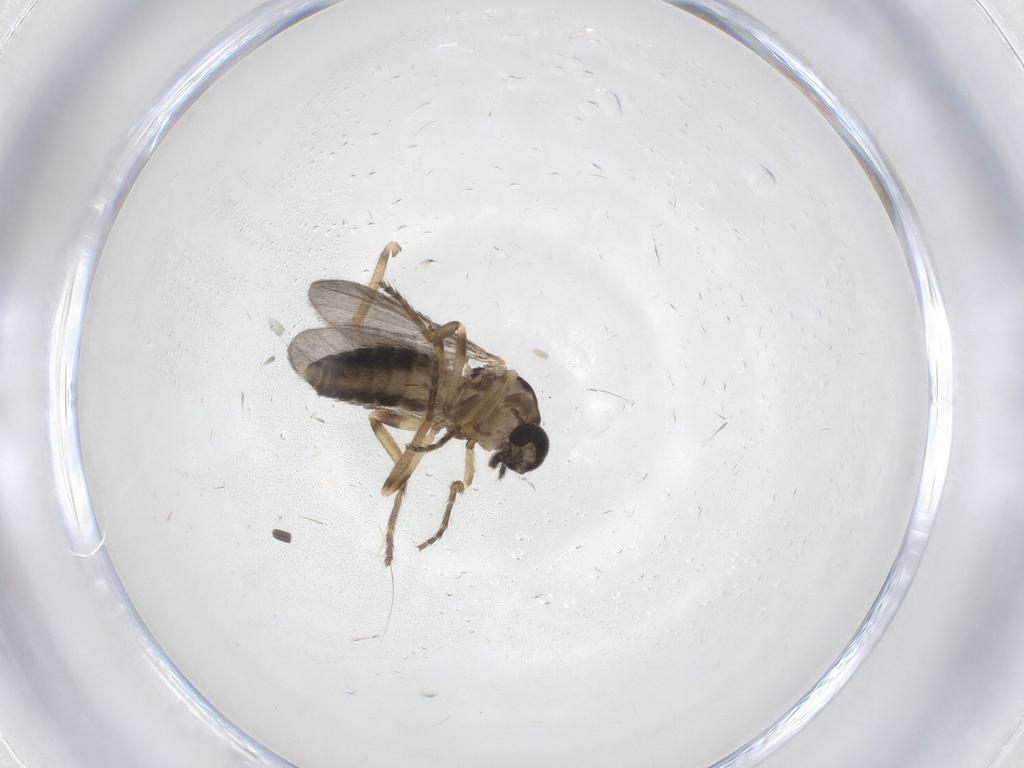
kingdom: Animalia
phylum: Arthropoda
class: Insecta
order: Diptera
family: Ceratopogonidae
